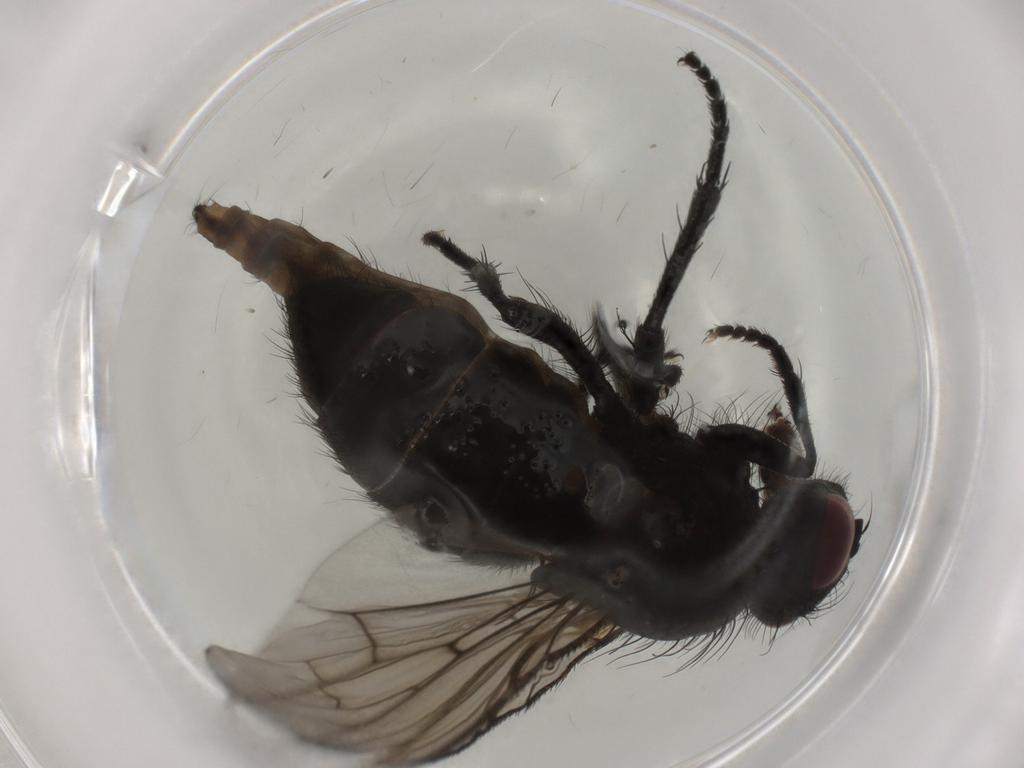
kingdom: Animalia
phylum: Arthropoda
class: Insecta
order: Diptera
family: Muscidae
